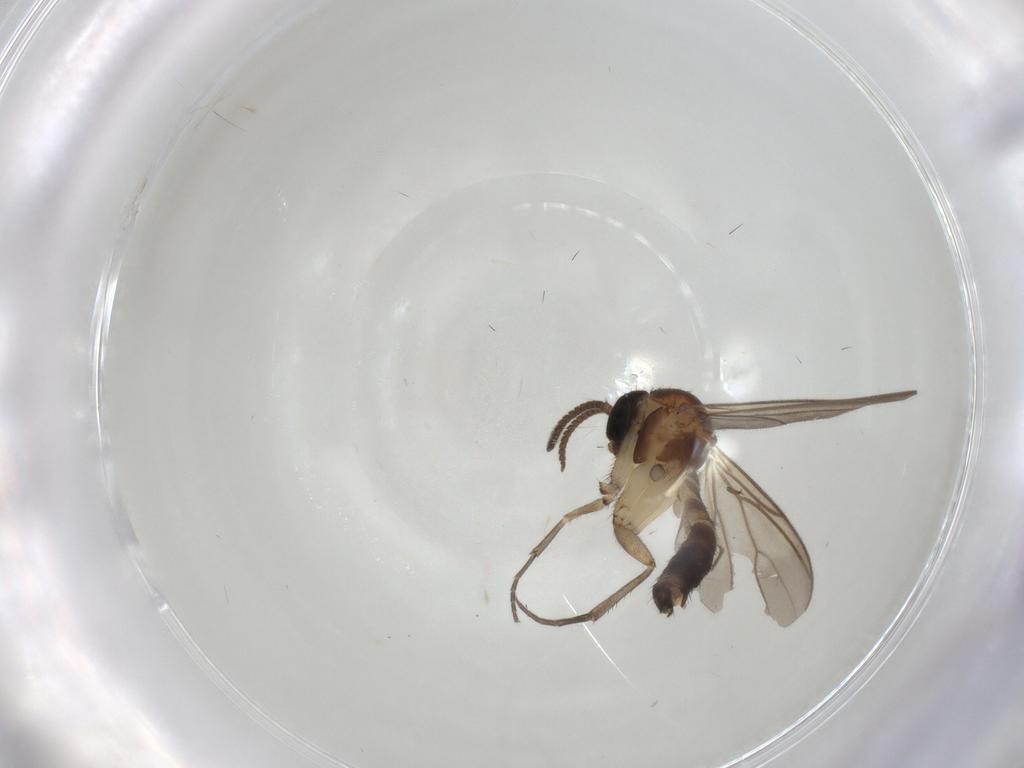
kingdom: Animalia
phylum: Arthropoda
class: Insecta
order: Diptera
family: Mycetophilidae
